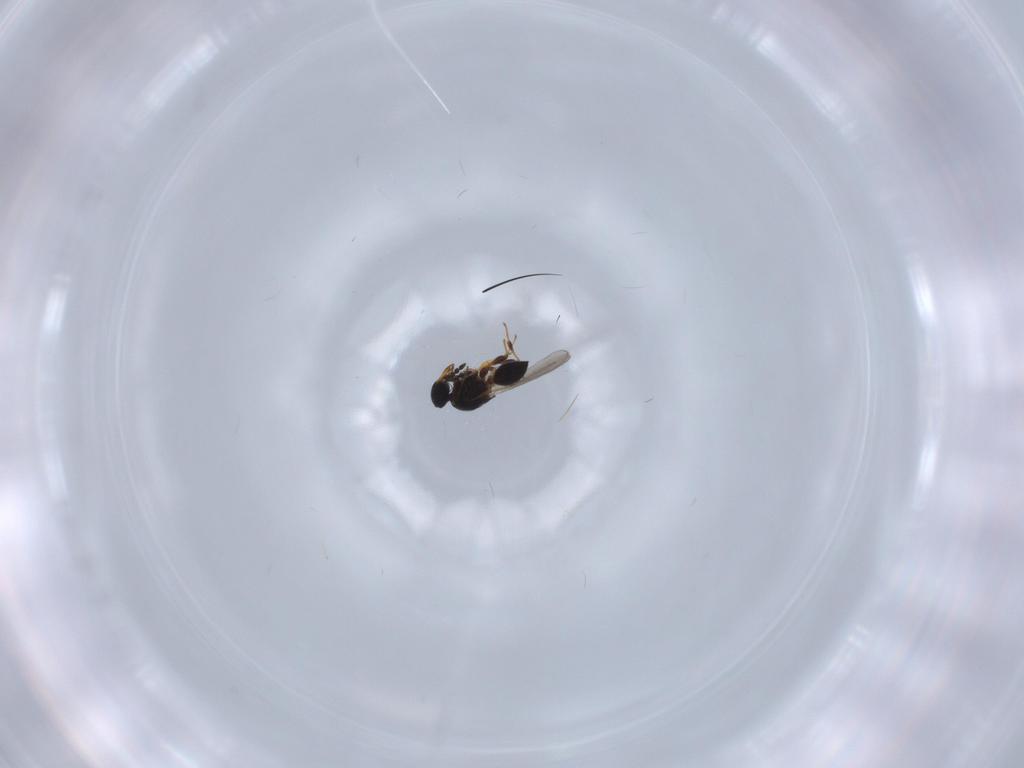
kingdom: Animalia
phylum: Arthropoda
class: Insecta
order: Hymenoptera
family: Platygastridae
